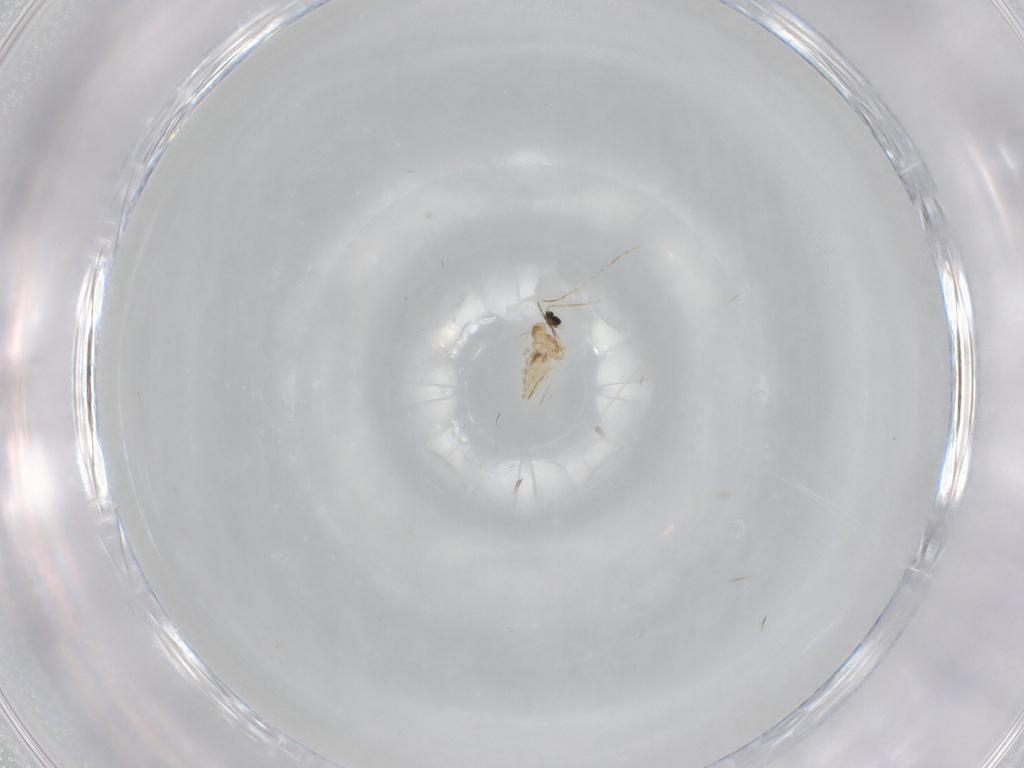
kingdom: Animalia
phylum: Arthropoda
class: Insecta
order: Diptera
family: Dolichopodidae
